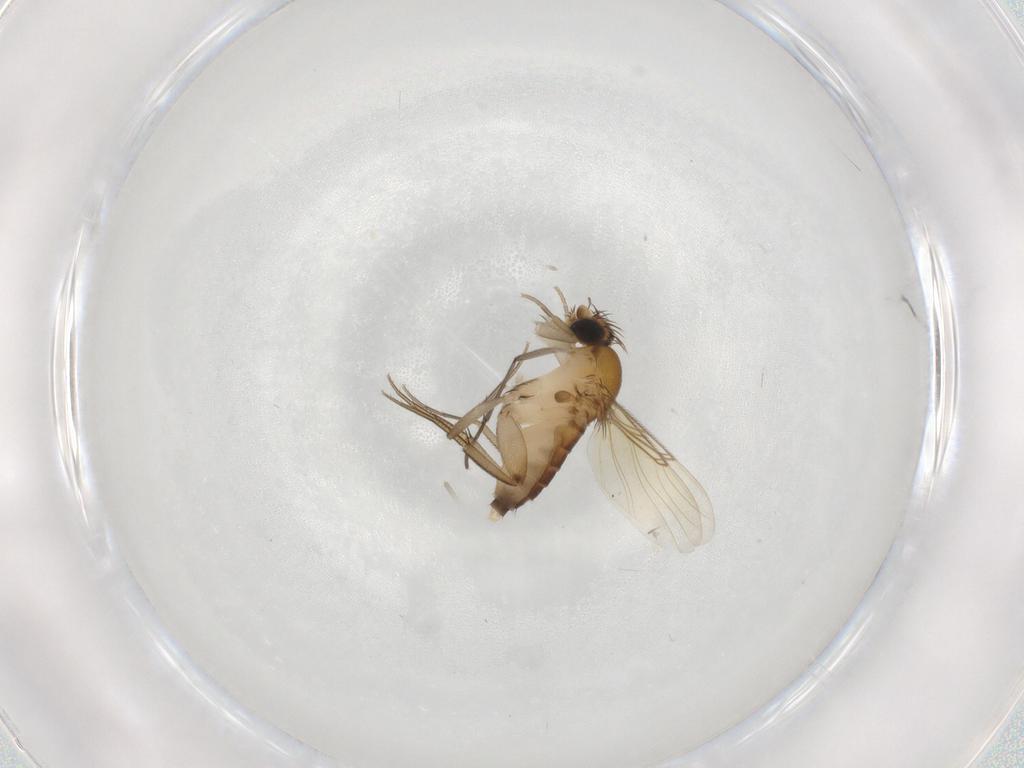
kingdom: Animalia
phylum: Arthropoda
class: Insecta
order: Diptera
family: Phoridae
